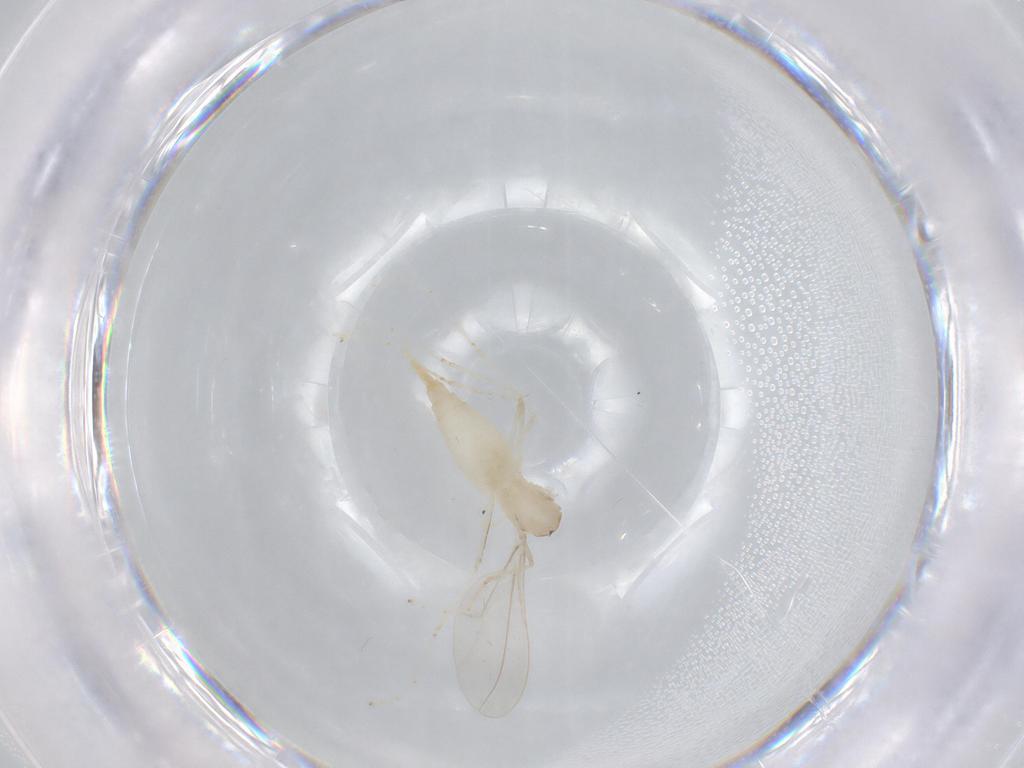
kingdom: Animalia
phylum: Arthropoda
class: Insecta
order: Diptera
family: Cecidomyiidae
